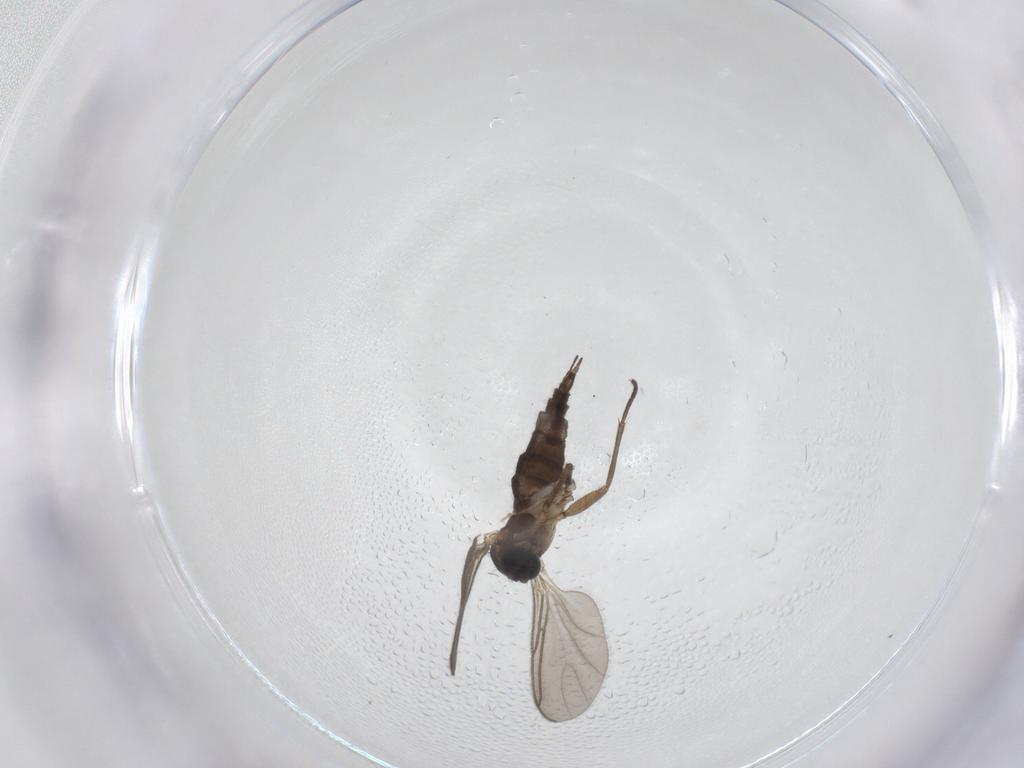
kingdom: Animalia
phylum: Arthropoda
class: Insecta
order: Diptera
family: Sciaridae
